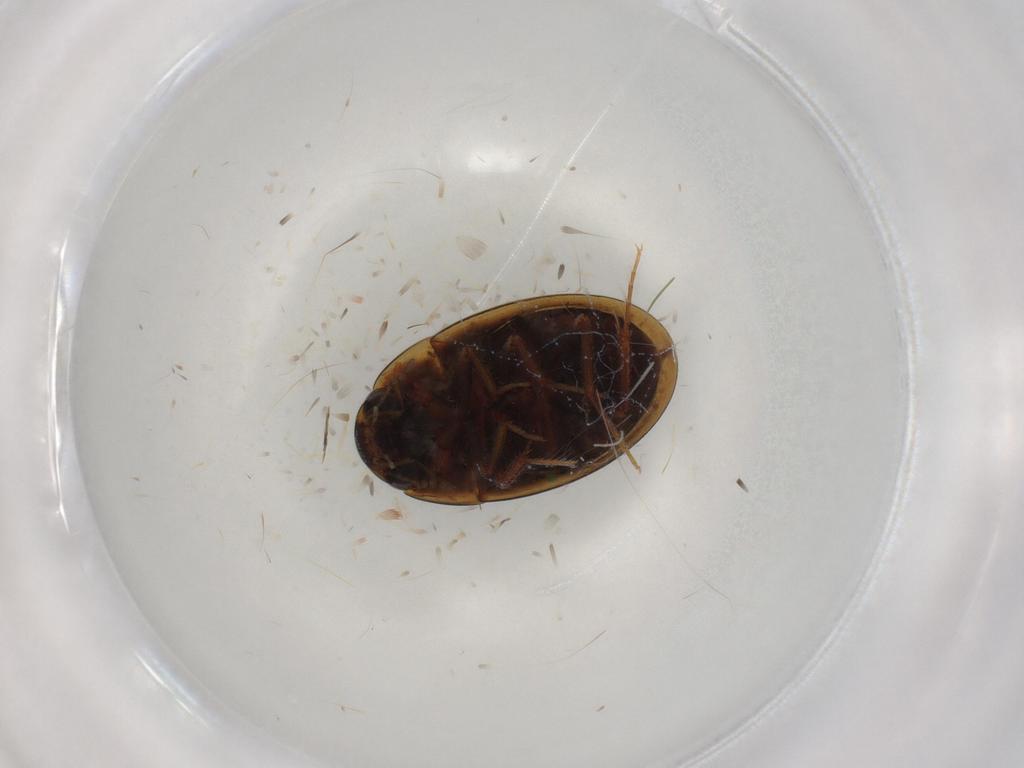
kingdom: Animalia
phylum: Arthropoda
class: Insecta
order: Coleoptera
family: Hydrophilidae
